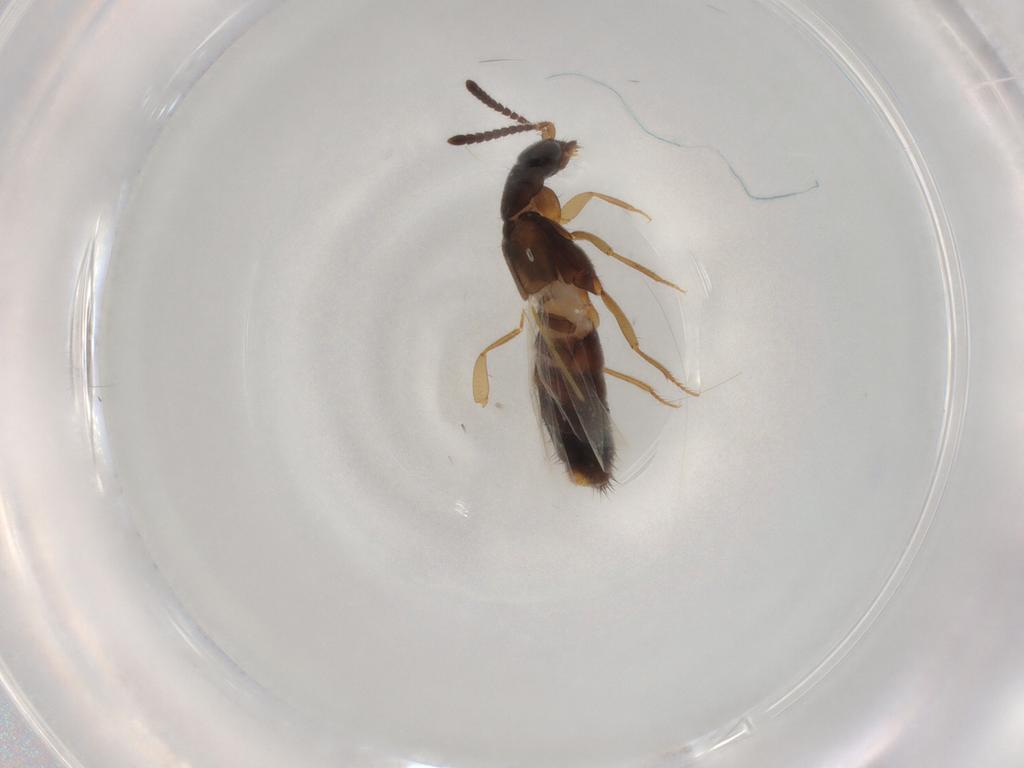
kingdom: Animalia
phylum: Arthropoda
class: Insecta
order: Coleoptera
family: Staphylinidae
